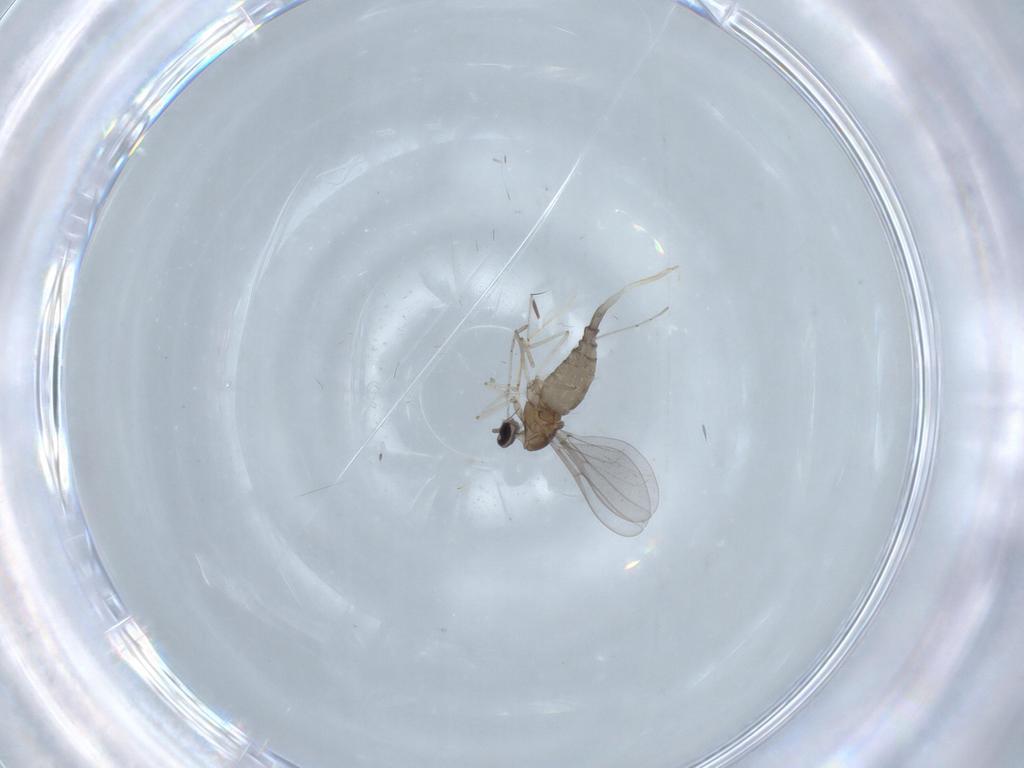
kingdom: Animalia
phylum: Arthropoda
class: Insecta
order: Diptera
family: Cecidomyiidae
